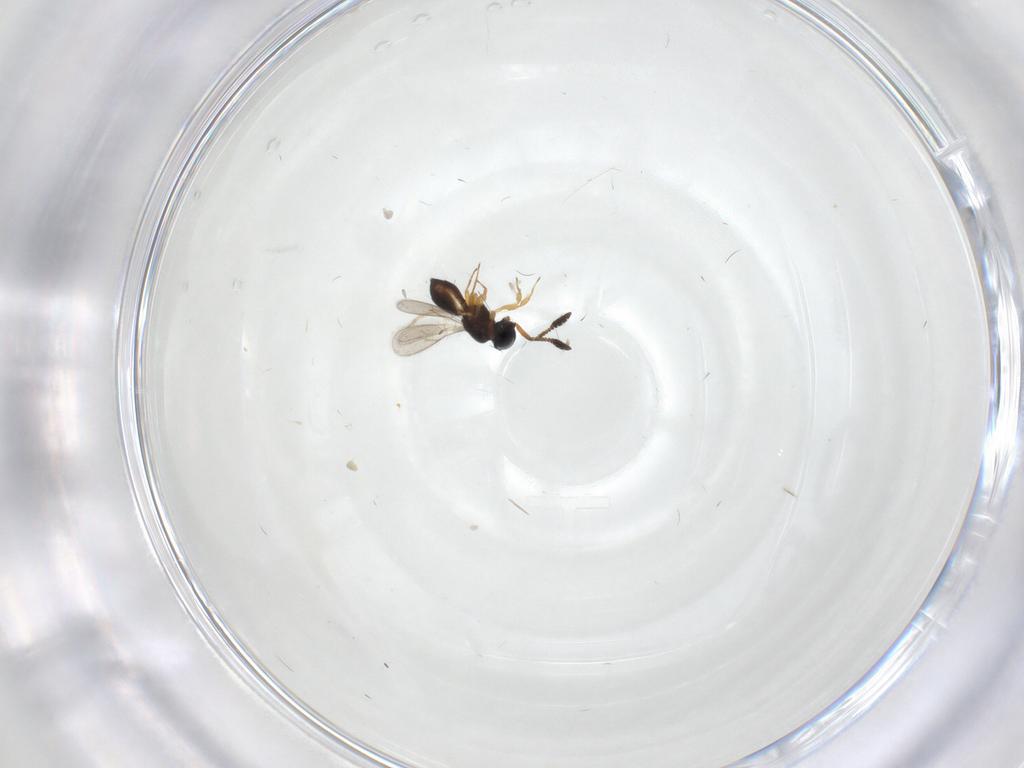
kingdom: Animalia
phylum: Arthropoda
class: Insecta
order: Hymenoptera
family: Scelionidae
